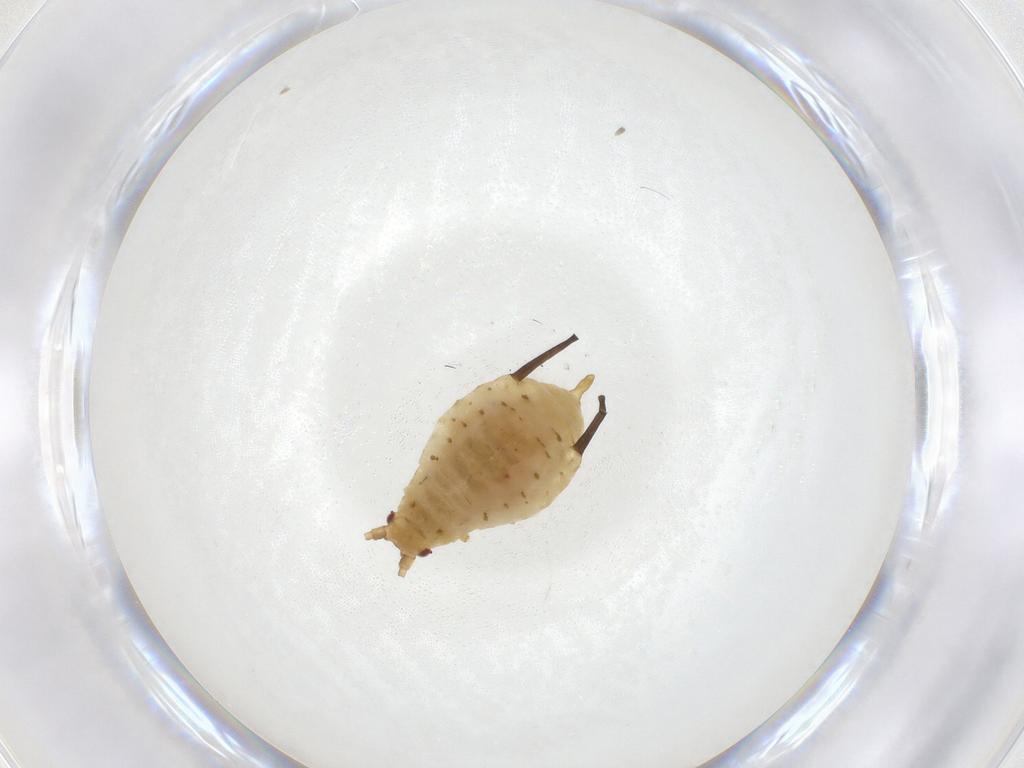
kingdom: Animalia
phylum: Arthropoda
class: Insecta
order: Hemiptera
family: Aphididae
